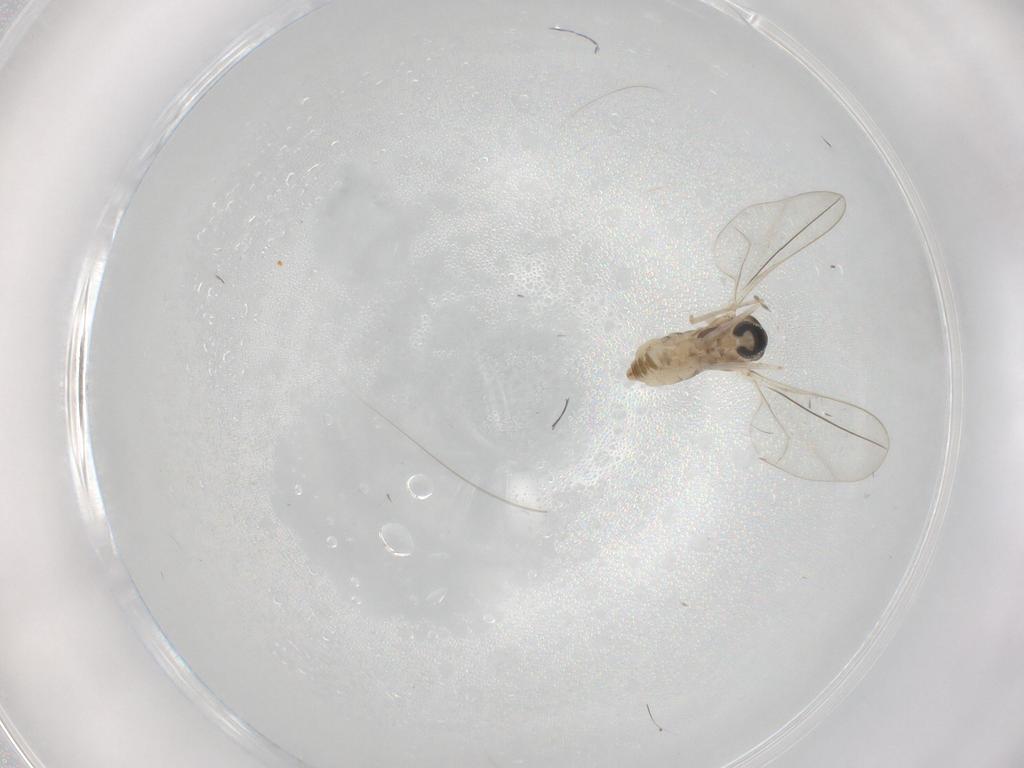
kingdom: Animalia
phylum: Arthropoda
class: Insecta
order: Diptera
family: Cecidomyiidae
